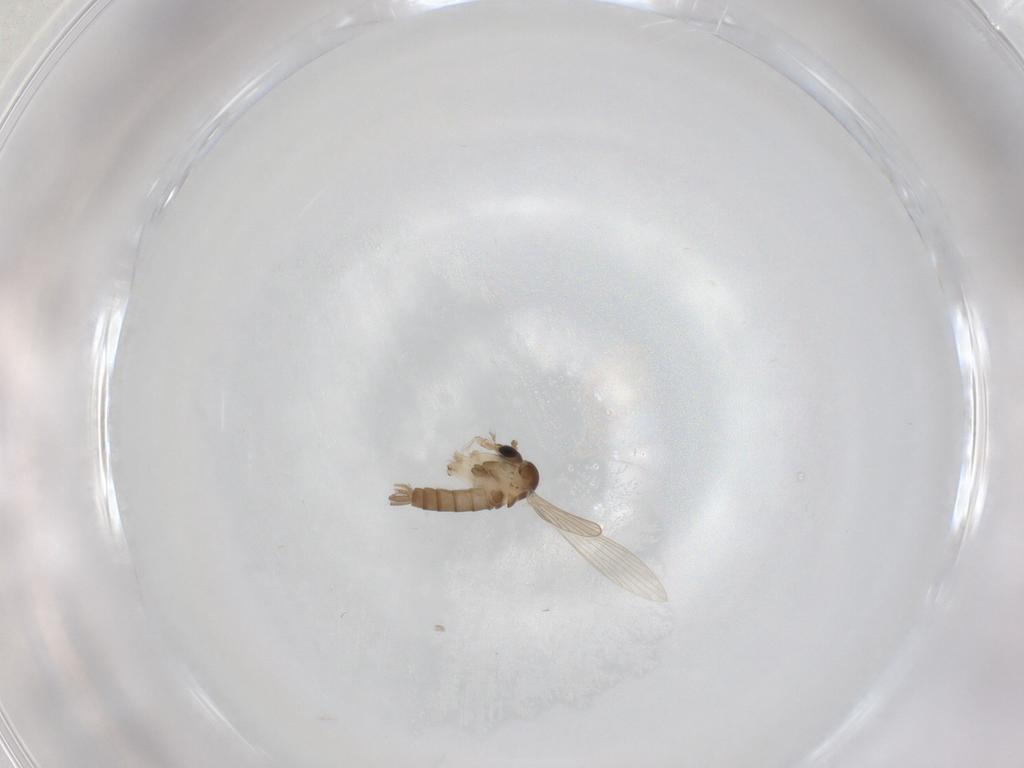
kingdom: Animalia
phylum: Arthropoda
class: Insecta
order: Diptera
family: Psychodidae
